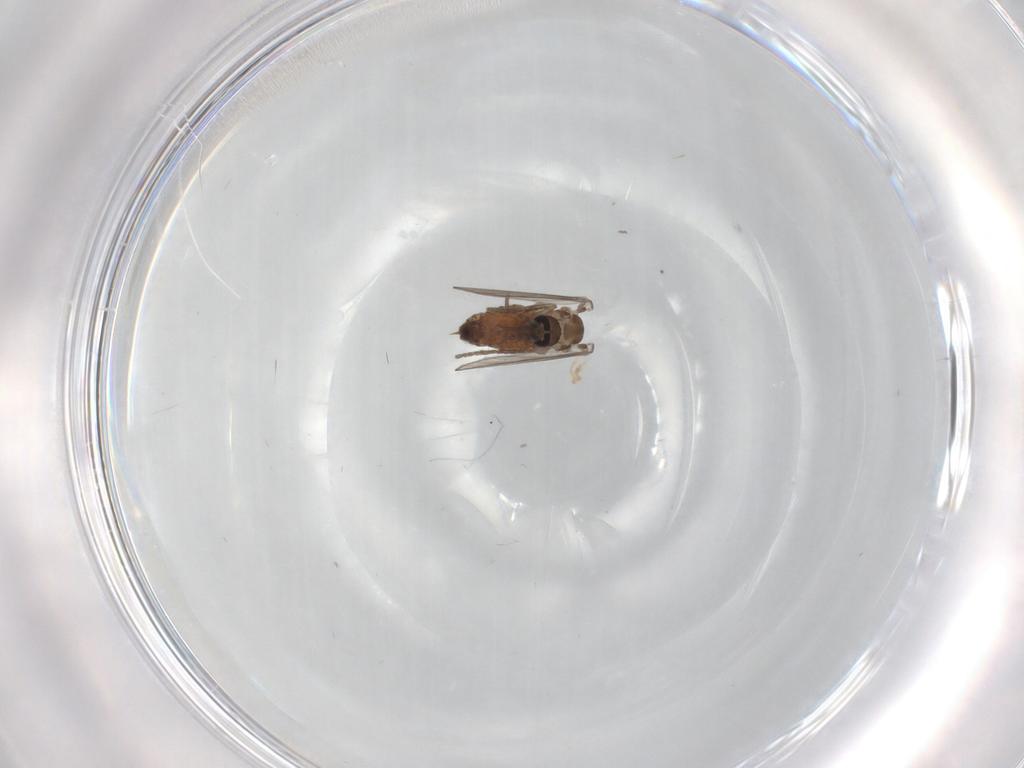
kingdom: Animalia
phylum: Arthropoda
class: Insecta
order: Diptera
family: Psychodidae
